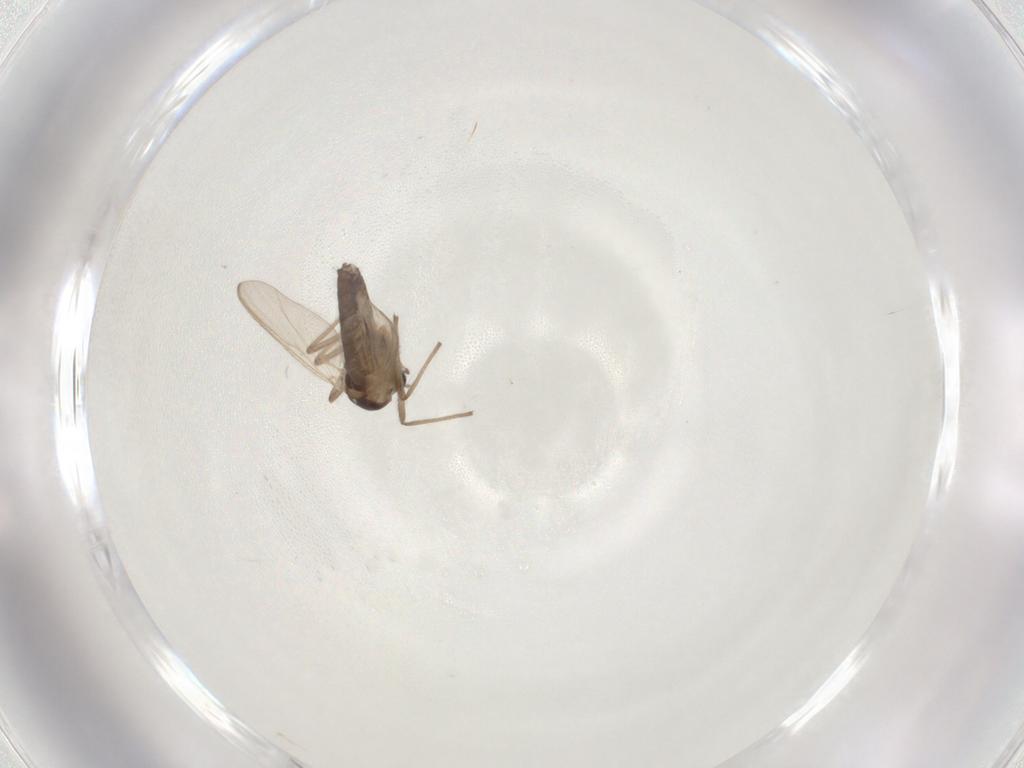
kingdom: Animalia
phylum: Arthropoda
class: Insecta
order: Diptera
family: Chironomidae
